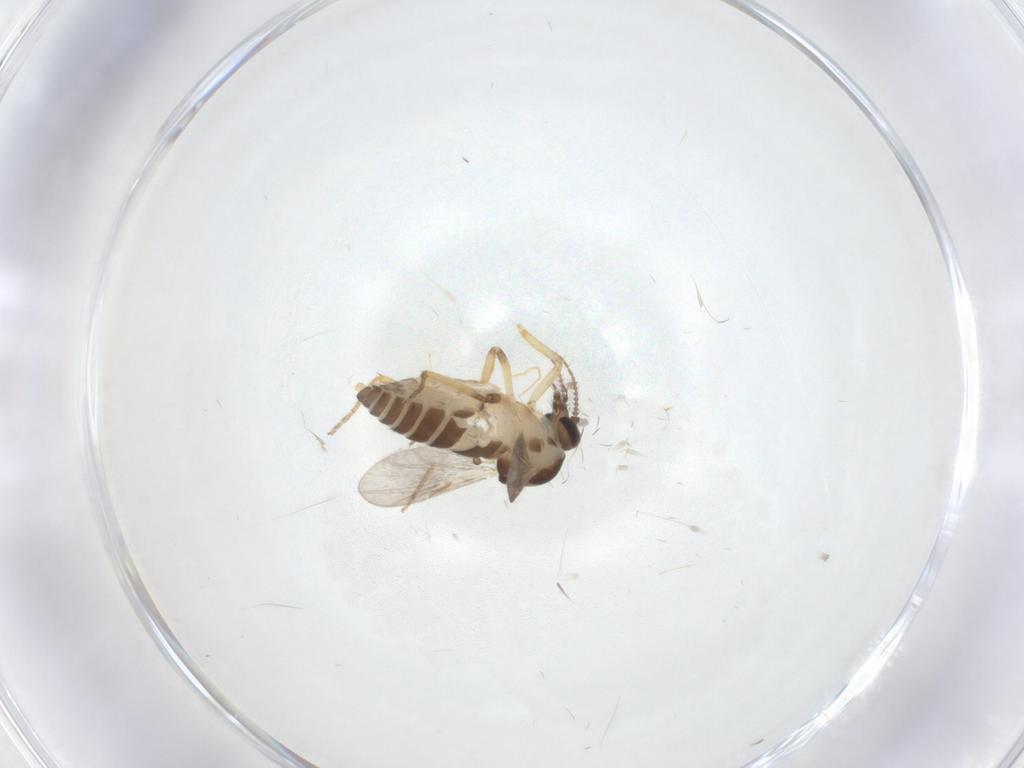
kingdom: Animalia
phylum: Arthropoda
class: Insecta
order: Diptera
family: Ceratopogonidae
